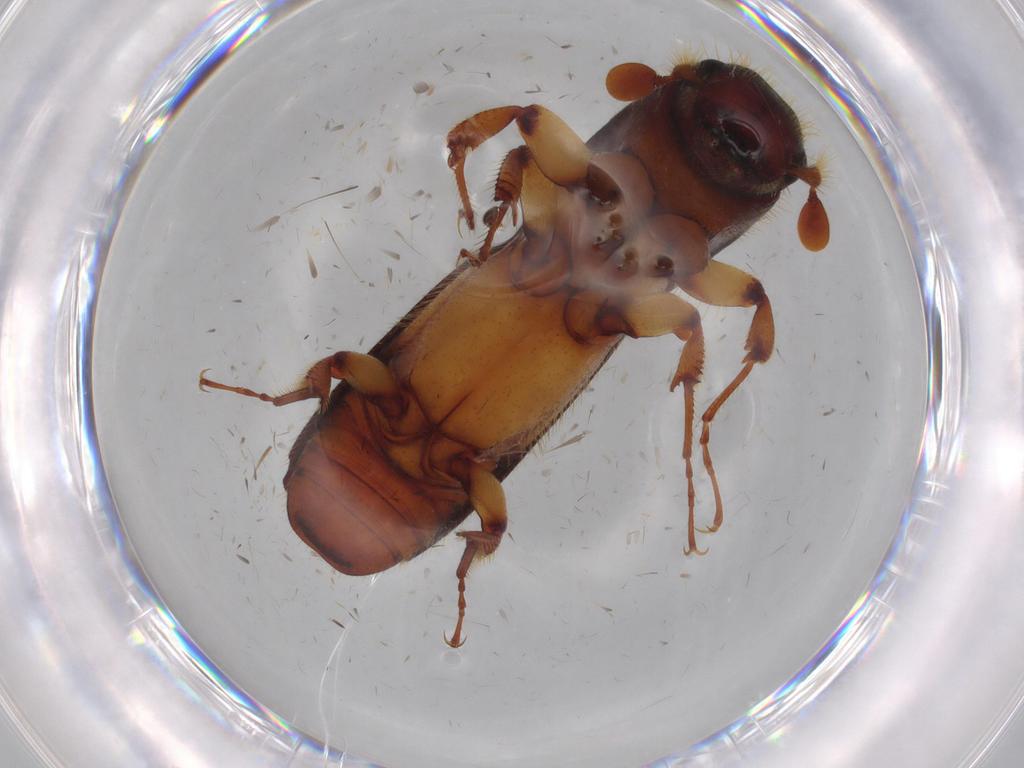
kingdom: Animalia
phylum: Arthropoda
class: Insecta
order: Coleoptera
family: Curculionidae
